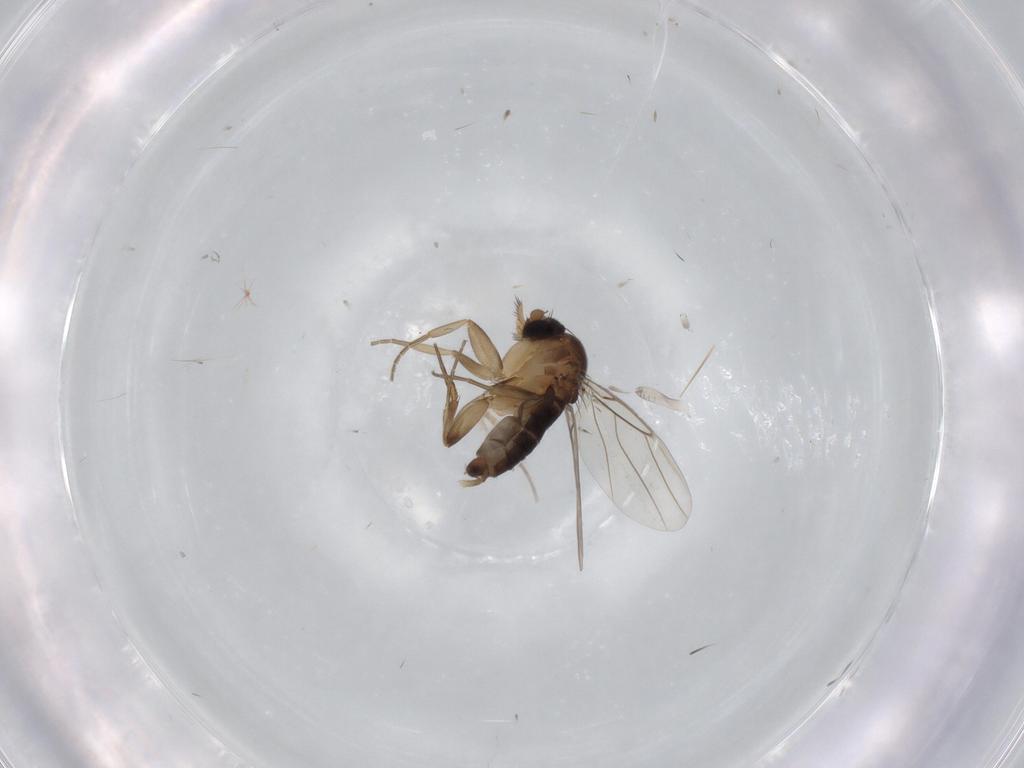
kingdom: Animalia
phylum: Arthropoda
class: Insecta
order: Diptera
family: Phoridae
